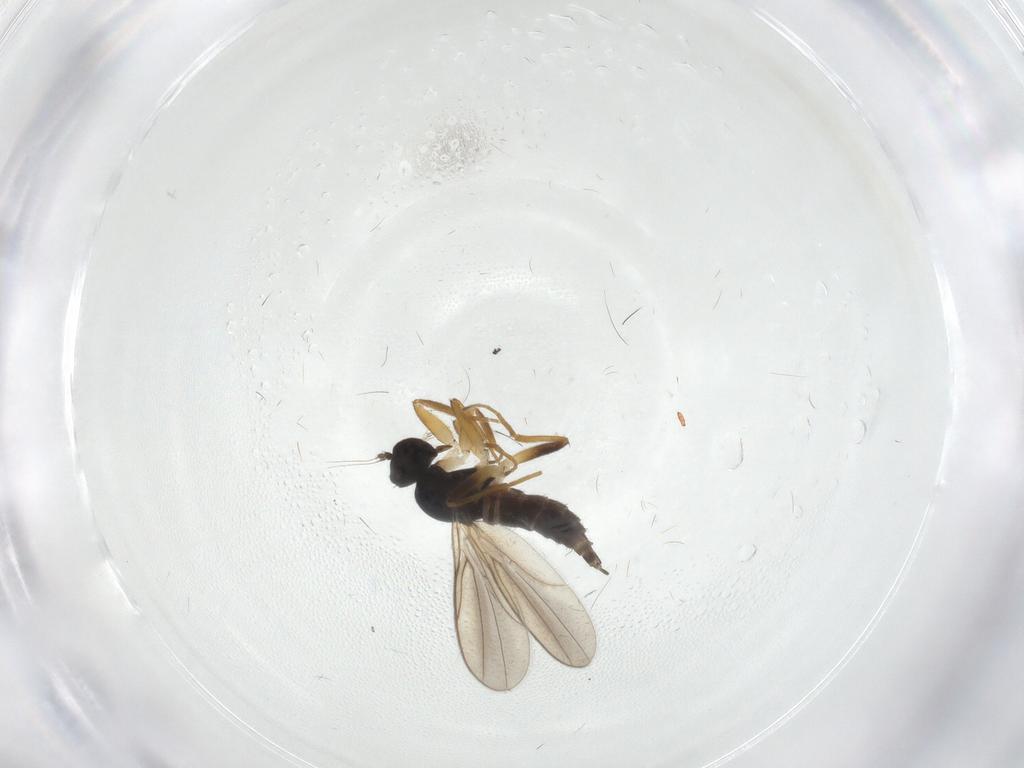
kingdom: Animalia
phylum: Arthropoda
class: Insecta
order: Diptera
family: Hybotidae
